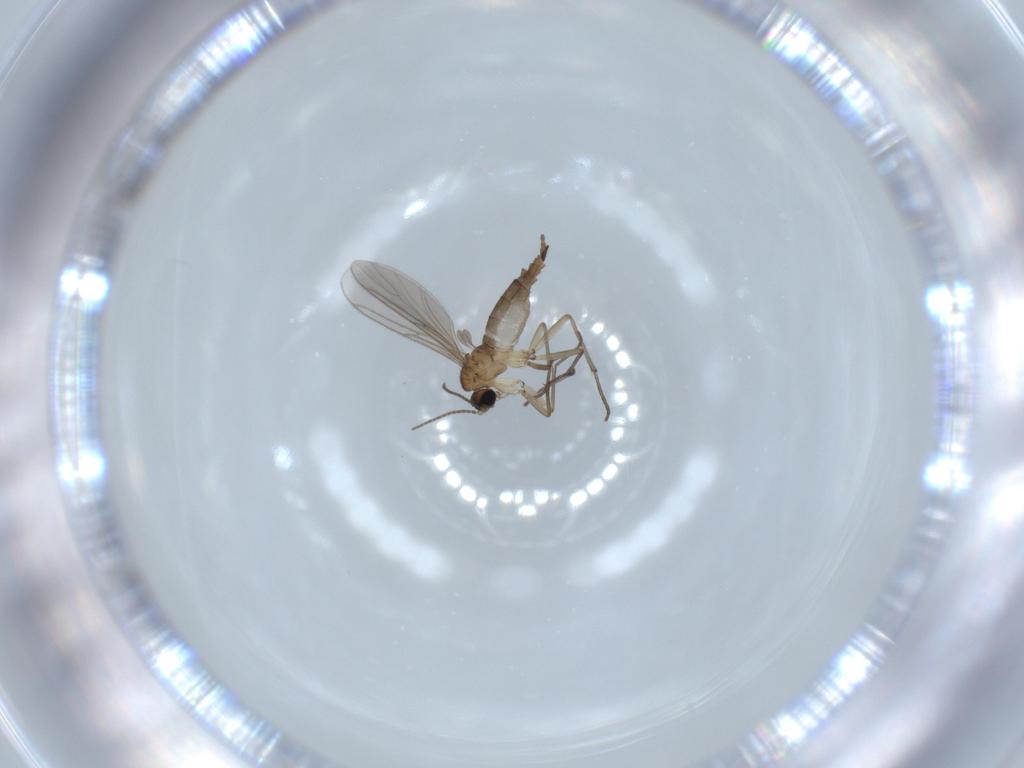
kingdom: Animalia
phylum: Arthropoda
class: Insecta
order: Diptera
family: Sciaridae
